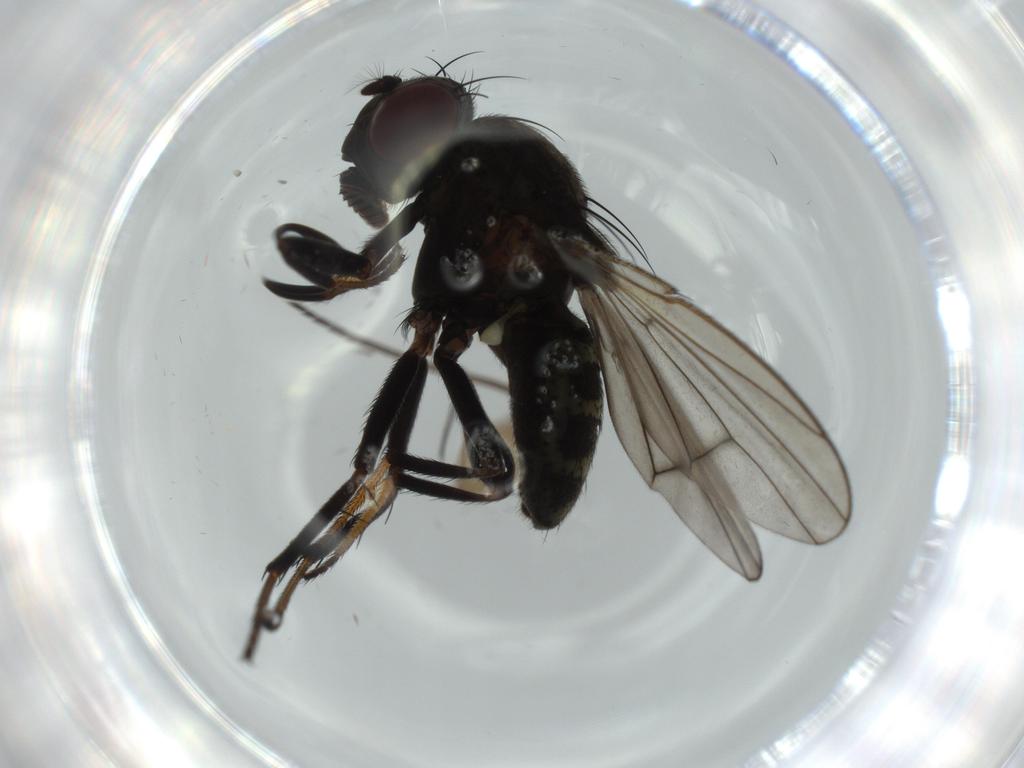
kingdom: Animalia
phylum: Arthropoda
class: Insecta
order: Diptera
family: Sciaridae
